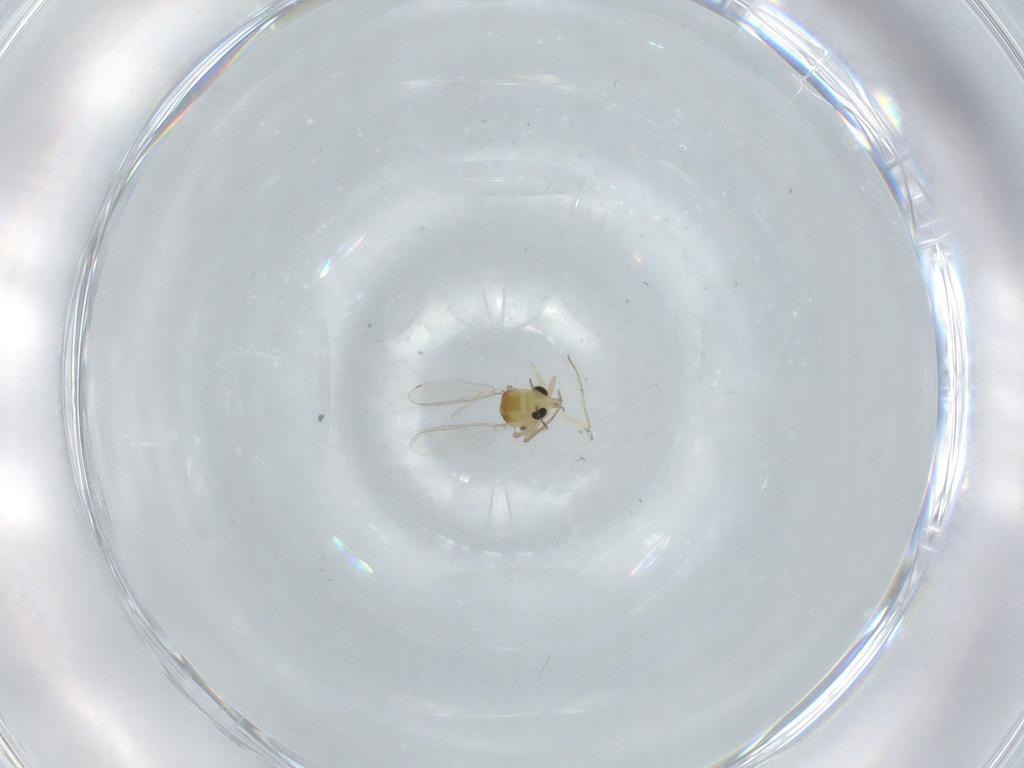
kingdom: Animalia
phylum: Arthropoda
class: Insecta
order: Diptera
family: Chironomidae
